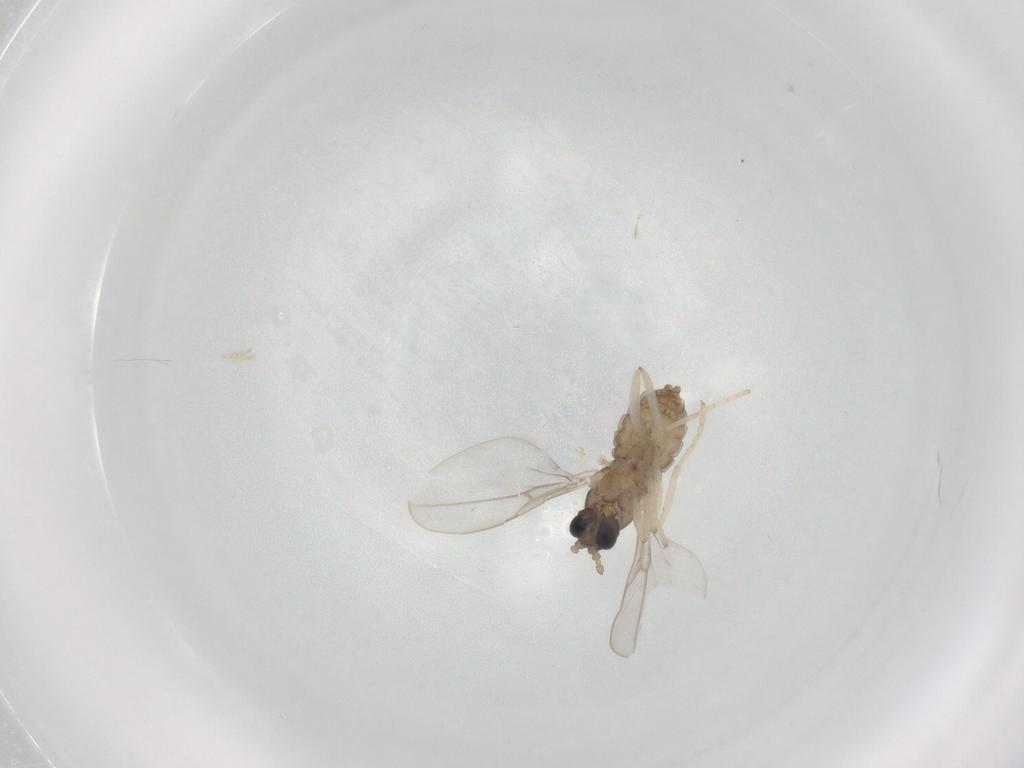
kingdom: Animalia
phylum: Arthropoda
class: Insecta
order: Diptera
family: Cecidomyiidae
